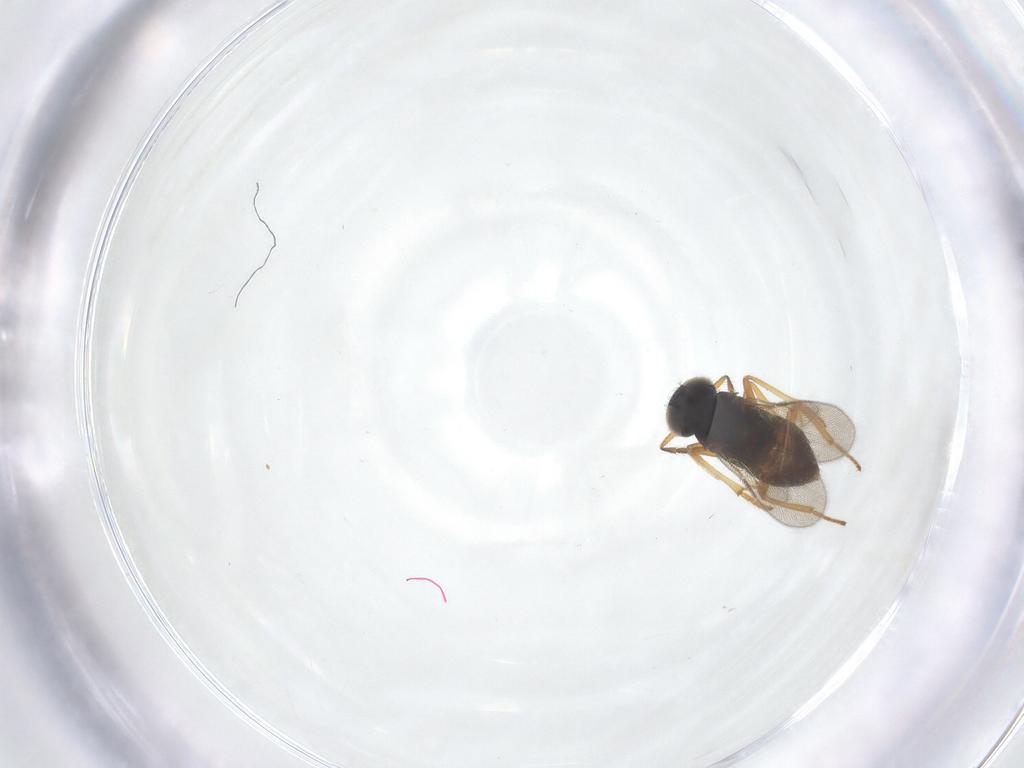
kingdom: Animalia
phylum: Arthropoda
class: Insecta
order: Hymenoptera
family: Encyrtidae
